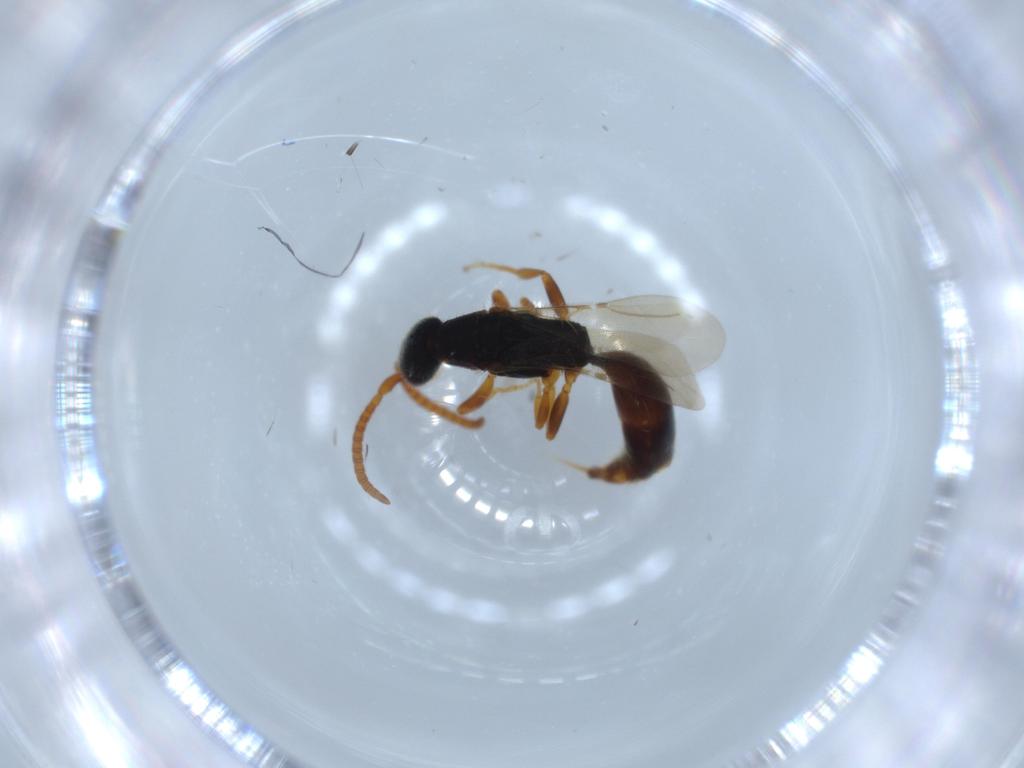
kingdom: Animalia
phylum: Arthropoda
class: Insecta
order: Hymenoptera
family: Bethylidae
